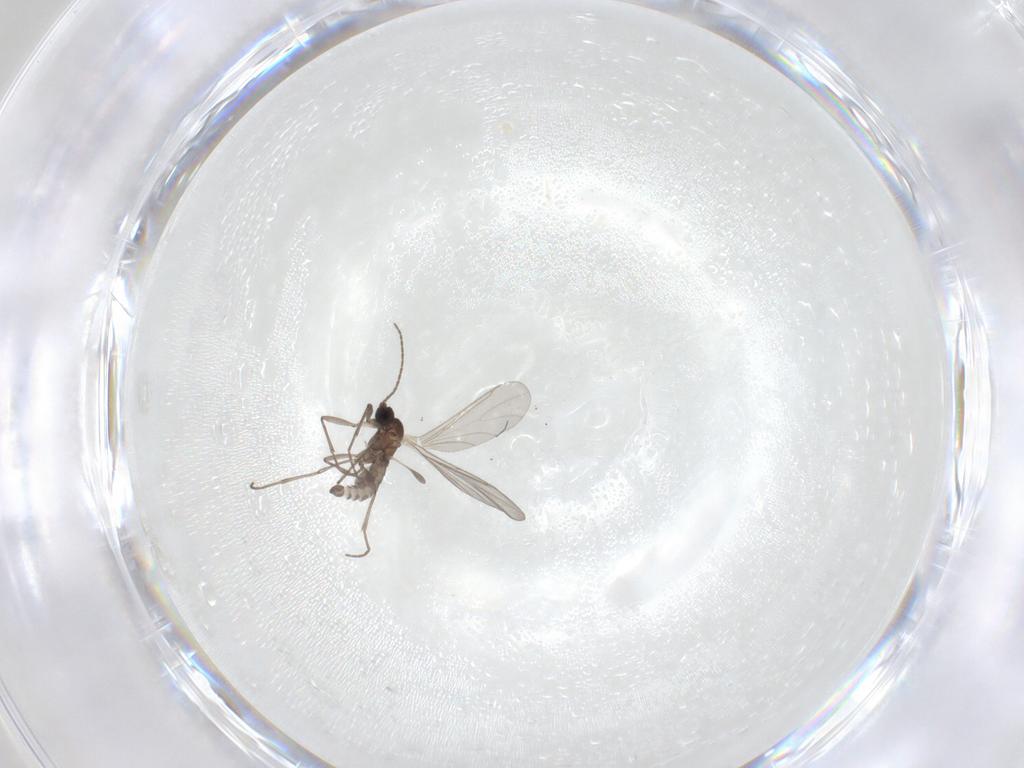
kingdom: Animalia
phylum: Arthropoda
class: Insecta
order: Diptera
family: Sciaridae
